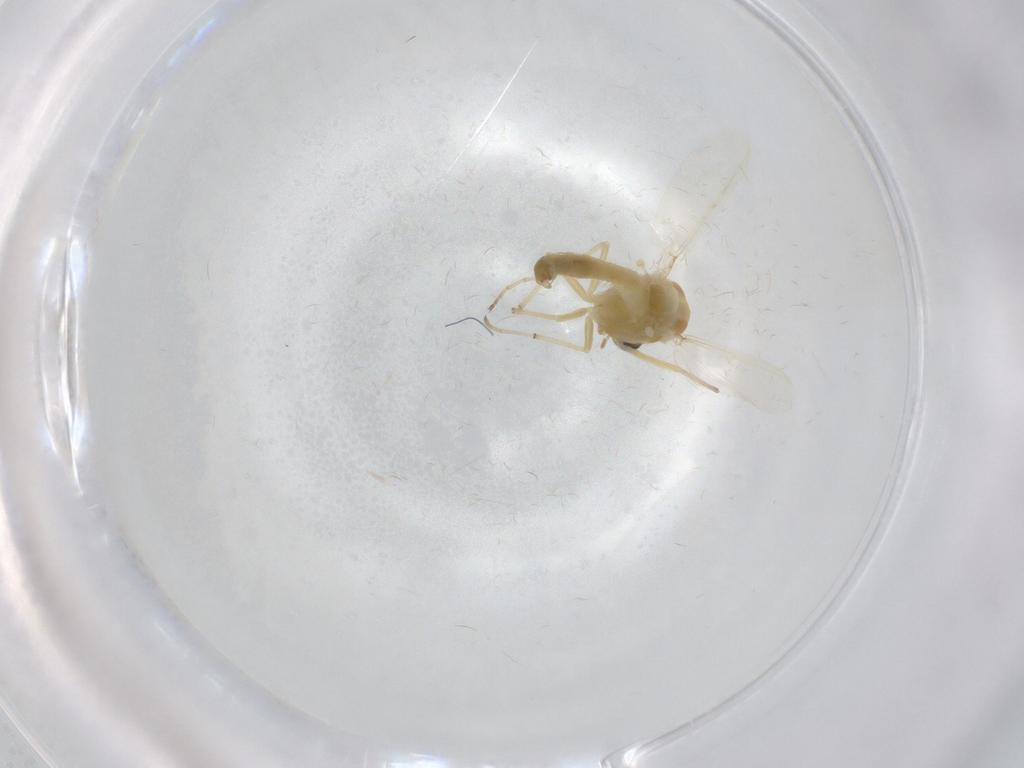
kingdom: Animalia
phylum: Arthropoda
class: Insecta
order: Diptera
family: Chironomidae
